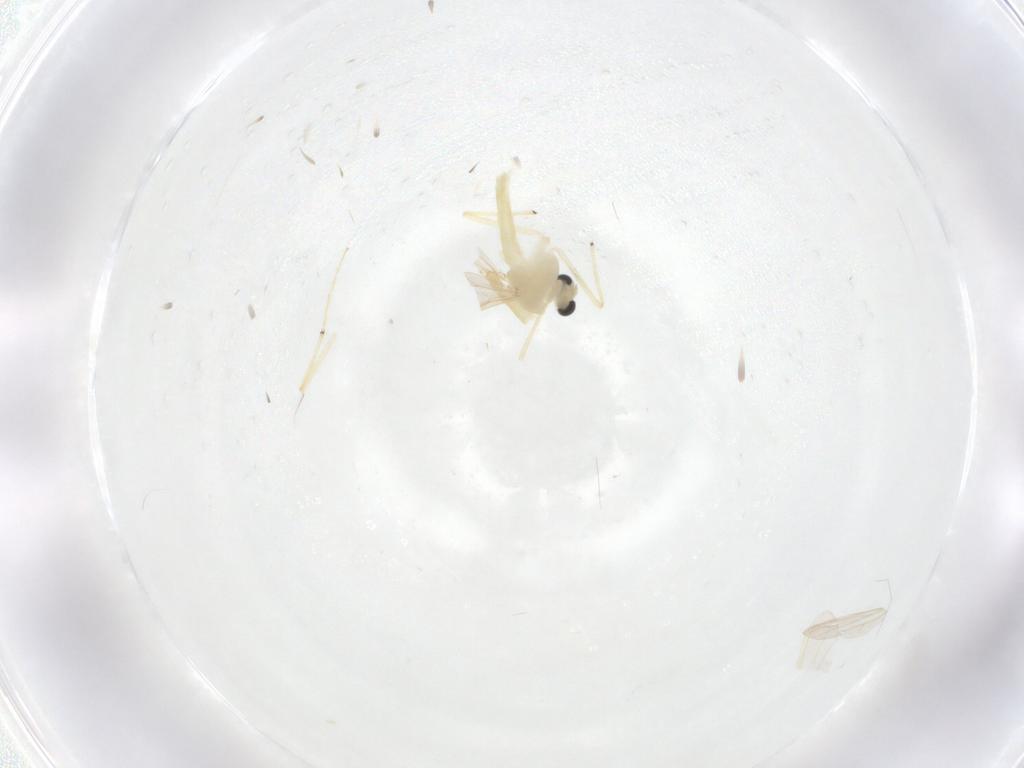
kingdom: Animalia
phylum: Arthropoda
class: Insecta
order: Diptera
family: Chironomidae
